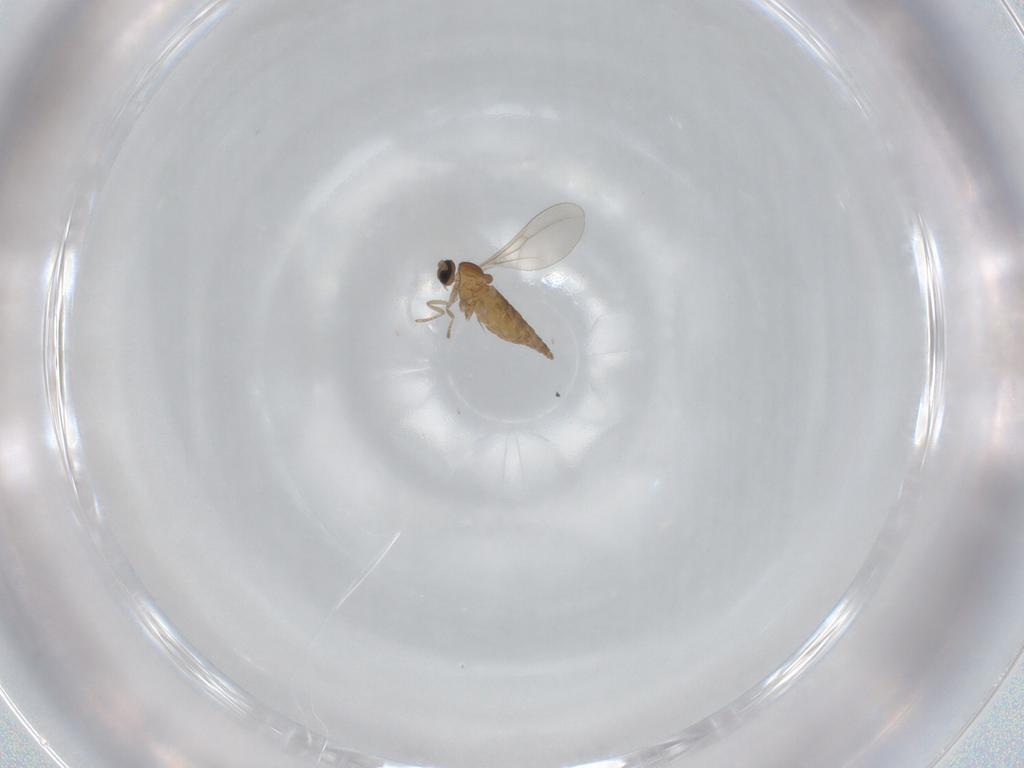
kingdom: Animalia
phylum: Arthropoda
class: Insecta
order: Diptera
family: Cecidomyiidae
